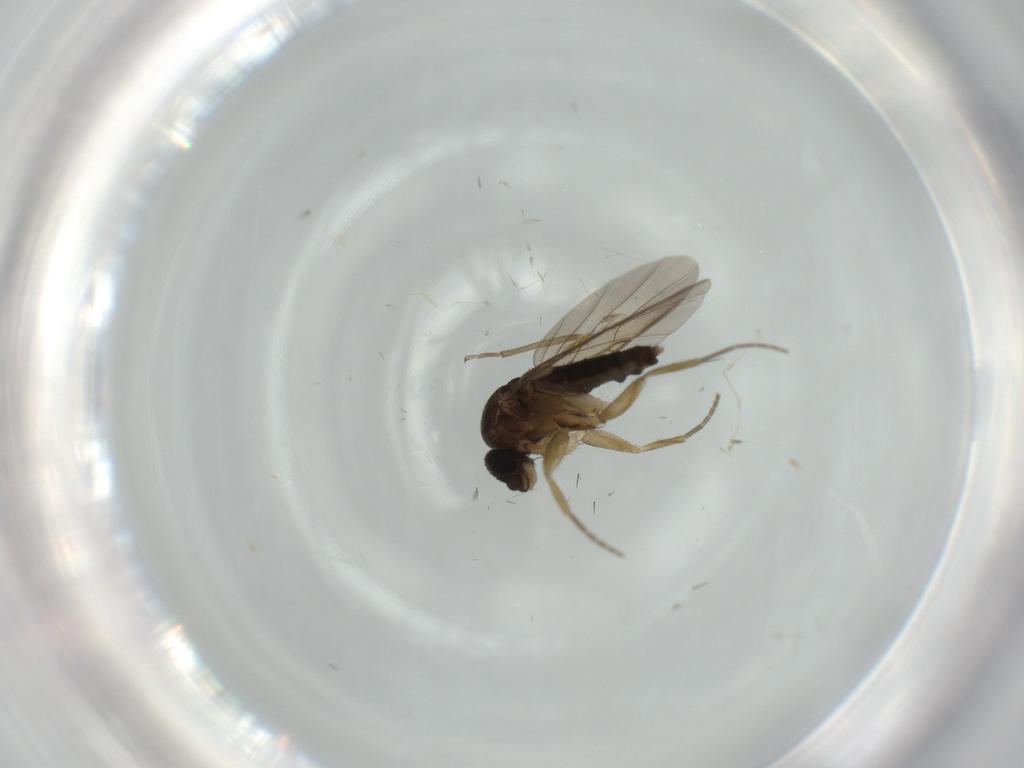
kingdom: Animalia
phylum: Arthropoda
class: Insecta
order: Diptera
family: Phoridae
